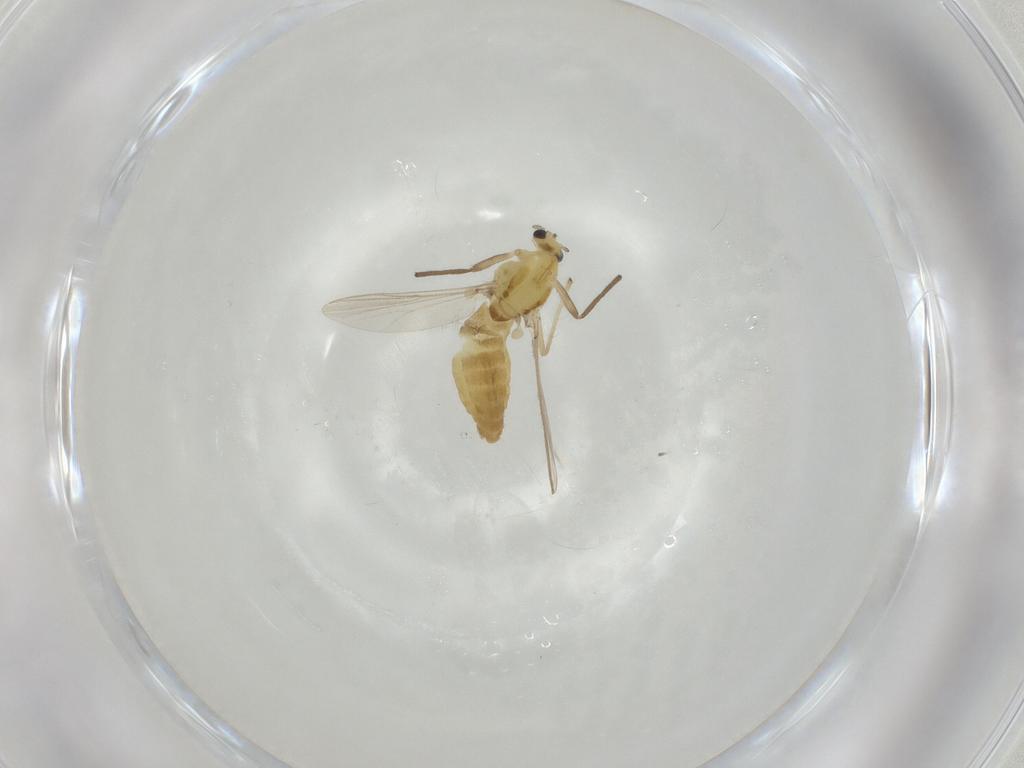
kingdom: Animalia
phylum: Arthropoda
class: Insecta
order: Diptera
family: Chironomidae
